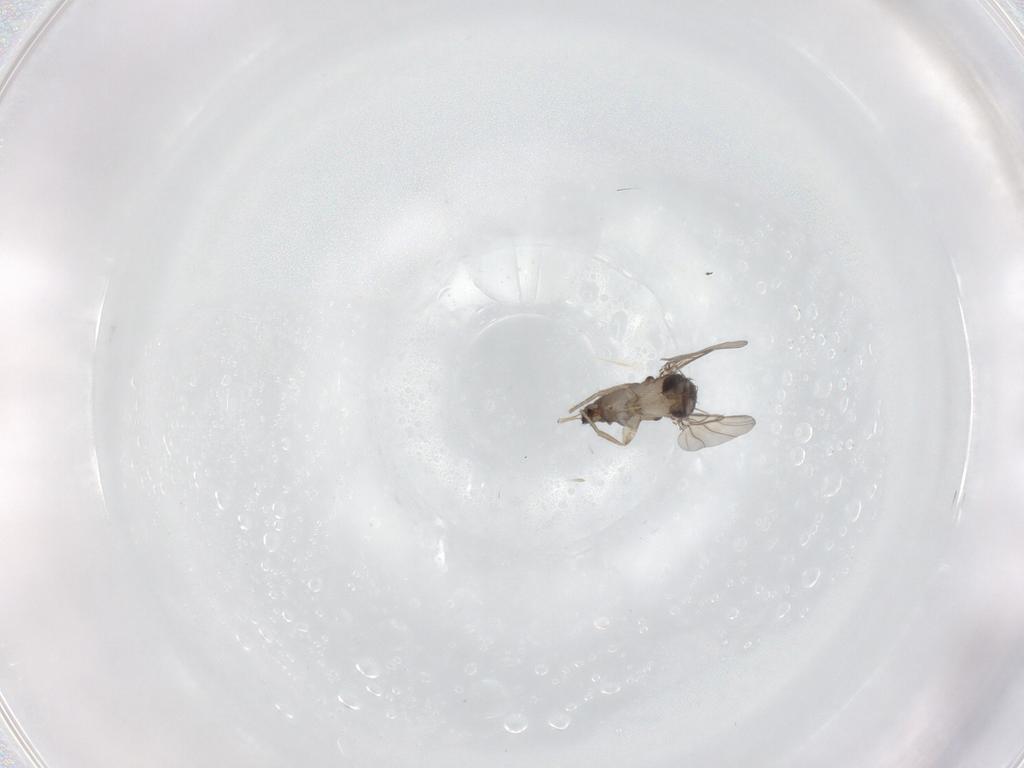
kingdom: Animalia
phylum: Arthropoda
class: Insecta
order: Diptera
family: Phoridae
